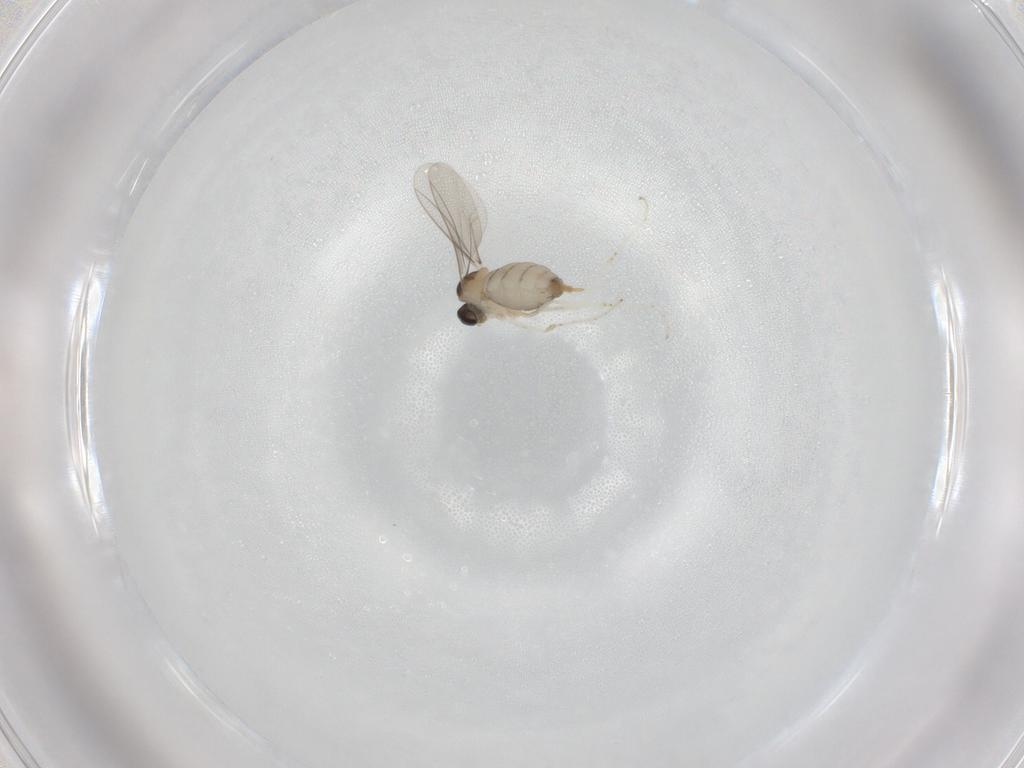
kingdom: Animalia
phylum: Arthropoda
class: Insecta
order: Diptera
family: Cecidomyiidae
